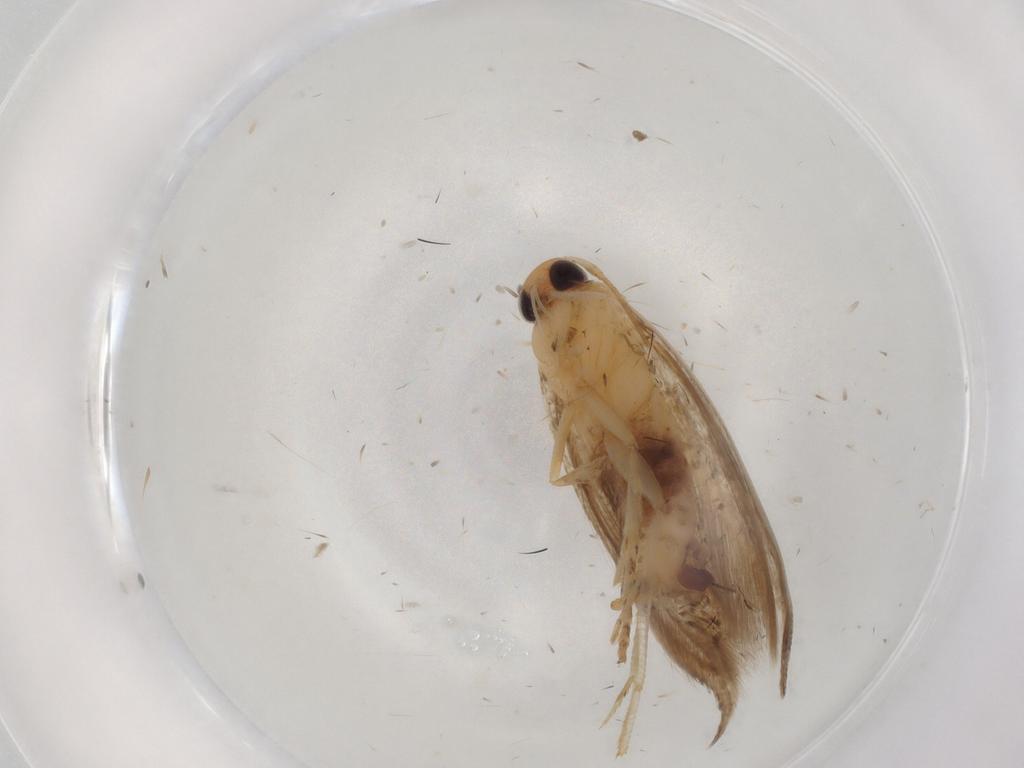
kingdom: Animalia
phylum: Arthropoda
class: Insecta
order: Lepidoptera
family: Momphidae
